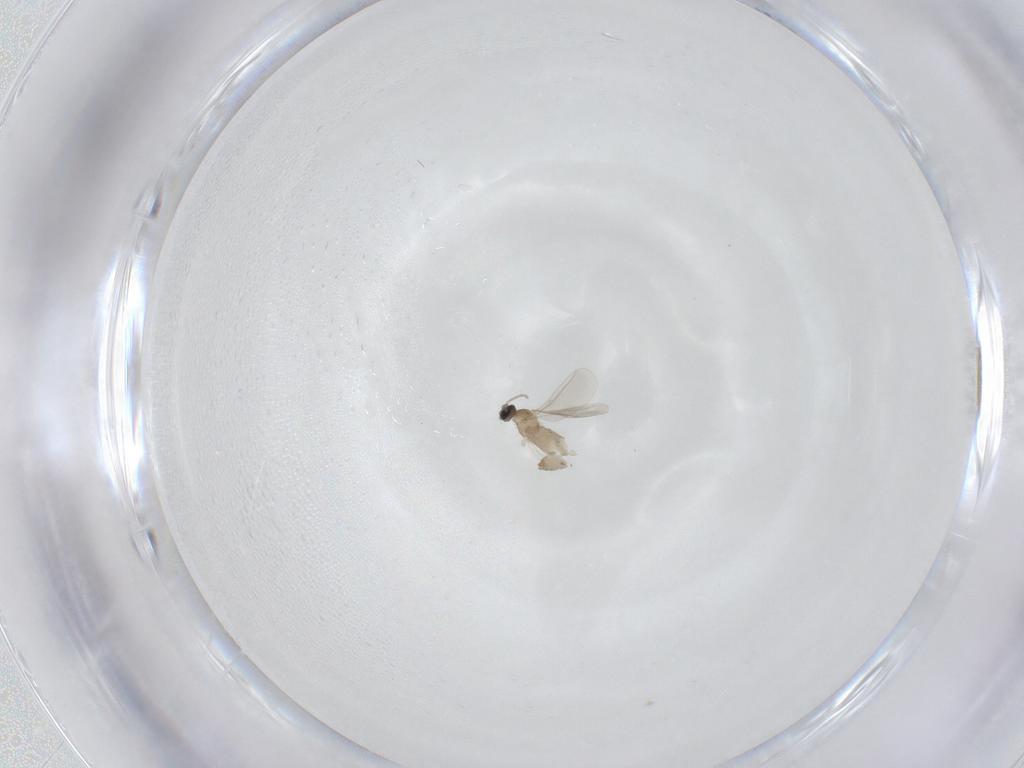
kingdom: Animalia
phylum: Arthropoda
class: Insecta
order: Diptera
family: Cecidomyiidae
